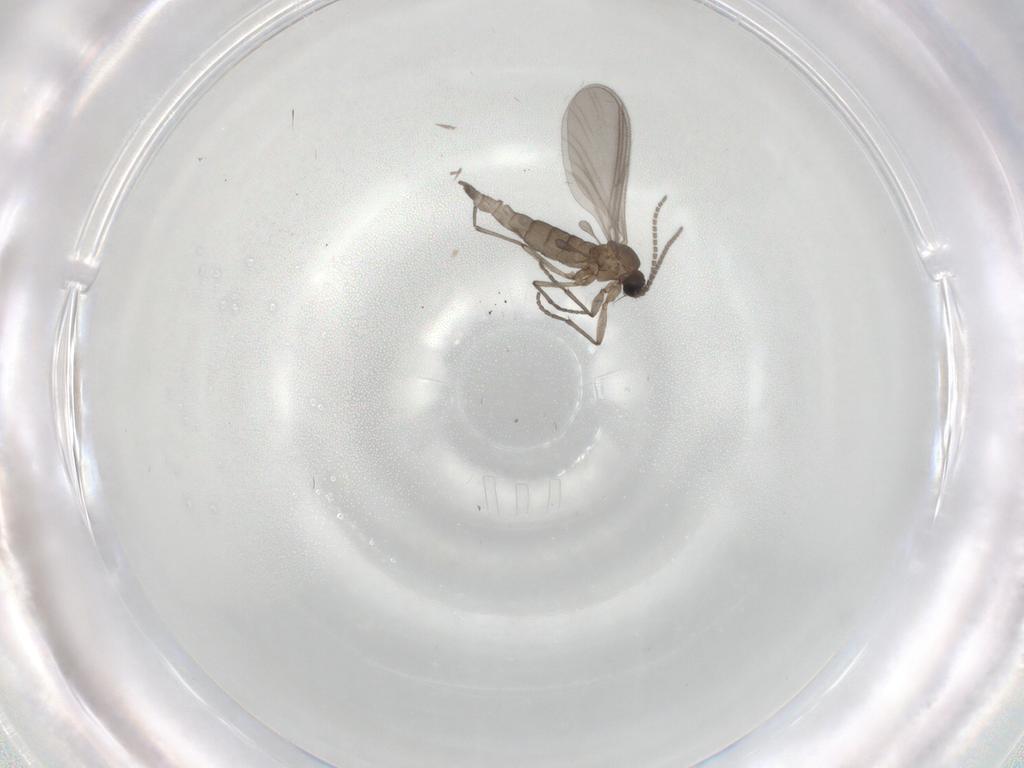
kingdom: Animalia
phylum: Arthropoda
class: Insecta
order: Diptera
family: Sciaridae
